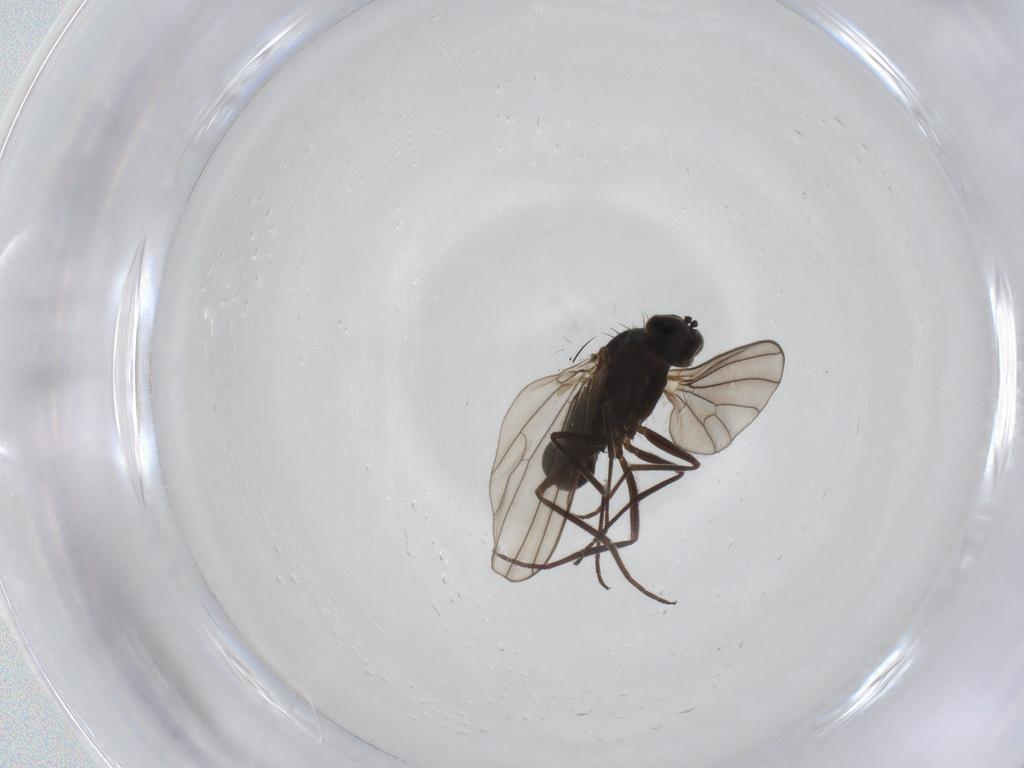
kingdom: Animalia
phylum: Arthropoda
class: Insecta
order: Diptera
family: Dolichopodidae
